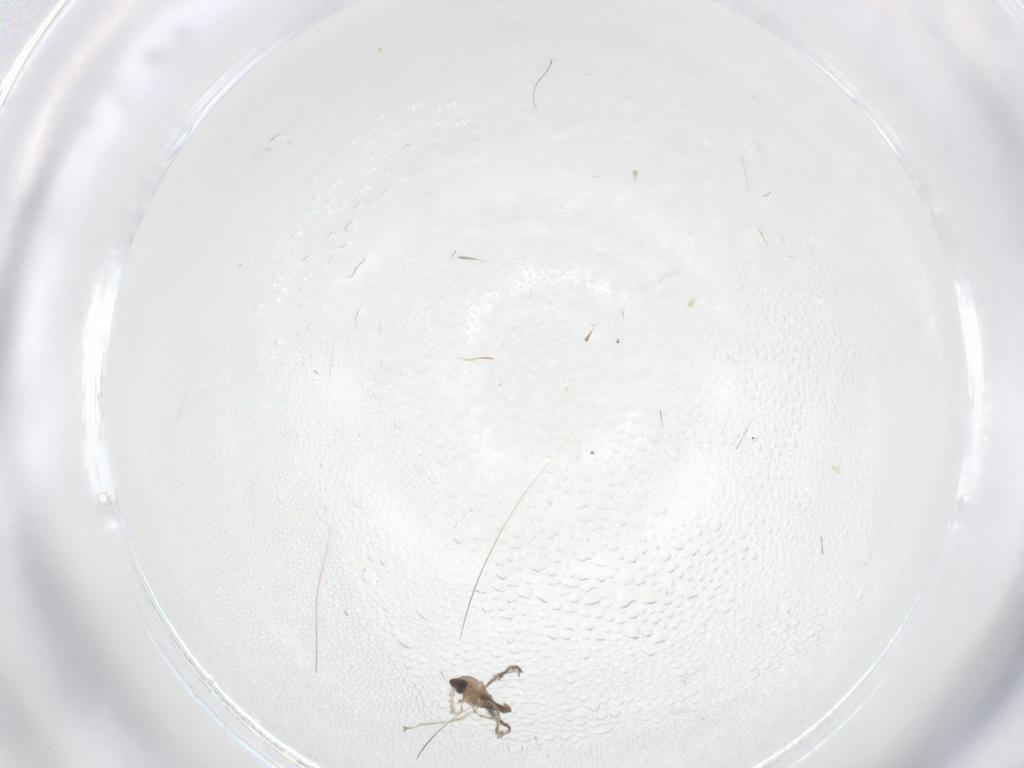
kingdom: Animalia
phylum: Arthropoda
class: Insecta
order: Diptera
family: Cecidomyiidae
